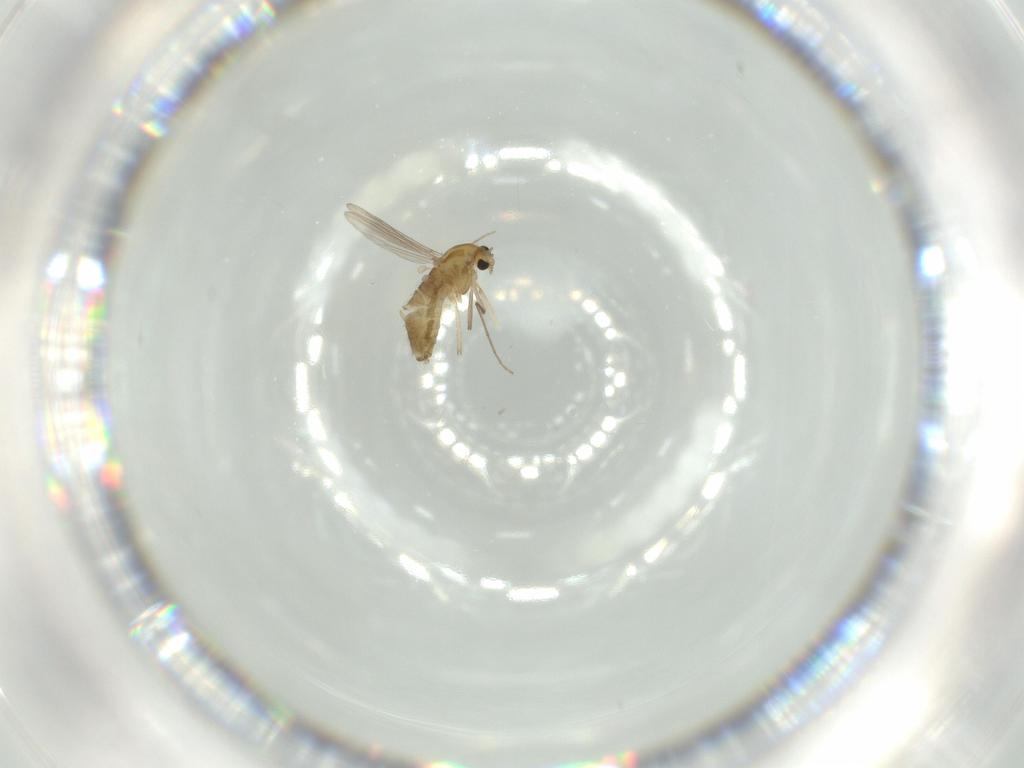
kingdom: Animalia
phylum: Arthropoda
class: Insecta
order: Diptera
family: Chironomidae
